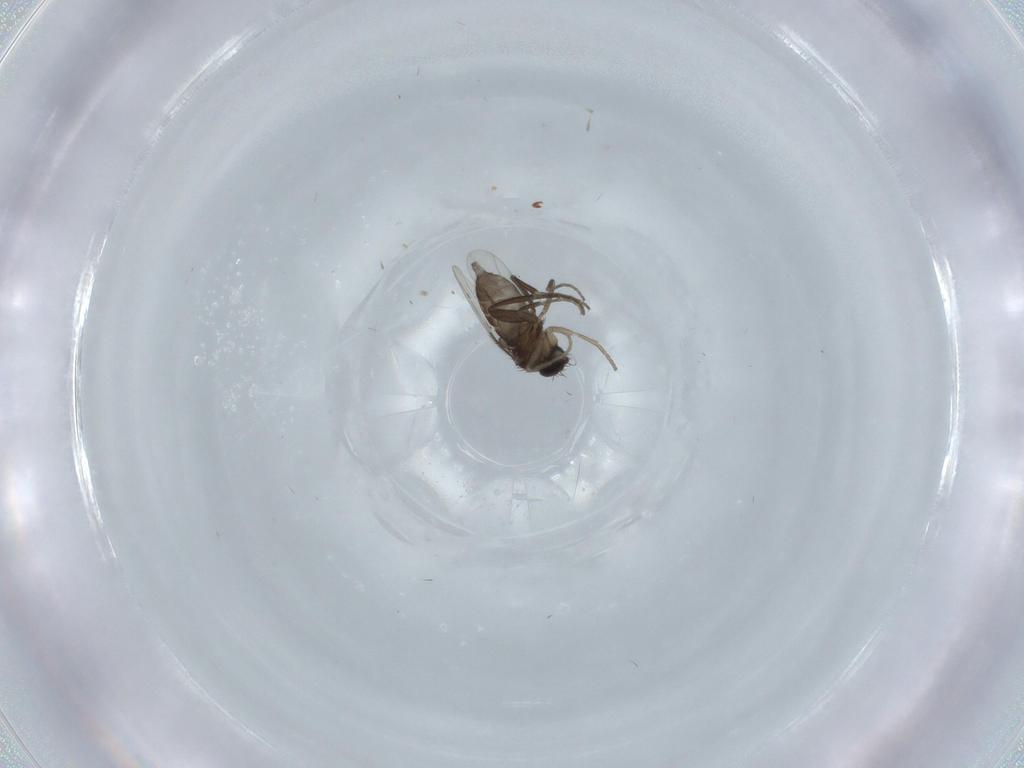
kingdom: Animalia
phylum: Arthropoda
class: Insecta
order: Diptera
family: Phoridae
